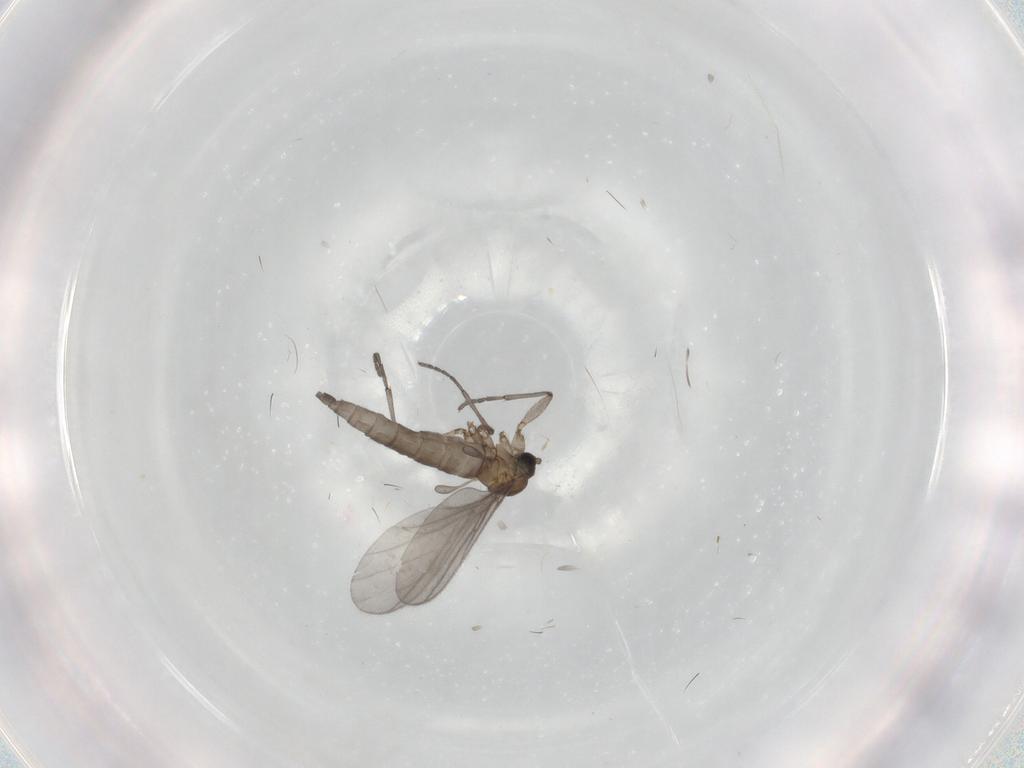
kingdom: Animalia
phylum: Arthropoda
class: Insecta
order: Diptera
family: Sciaridae
